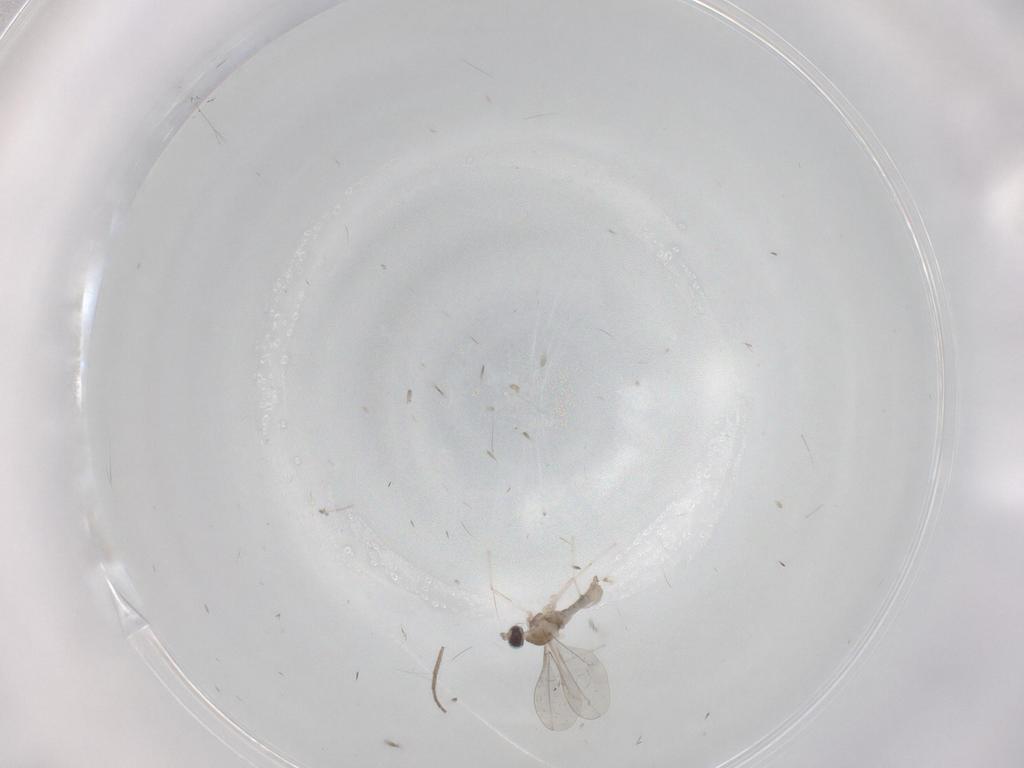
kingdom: Animalia
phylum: Arthropoda
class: Insecta
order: Diptera
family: Cecidomyiidae
